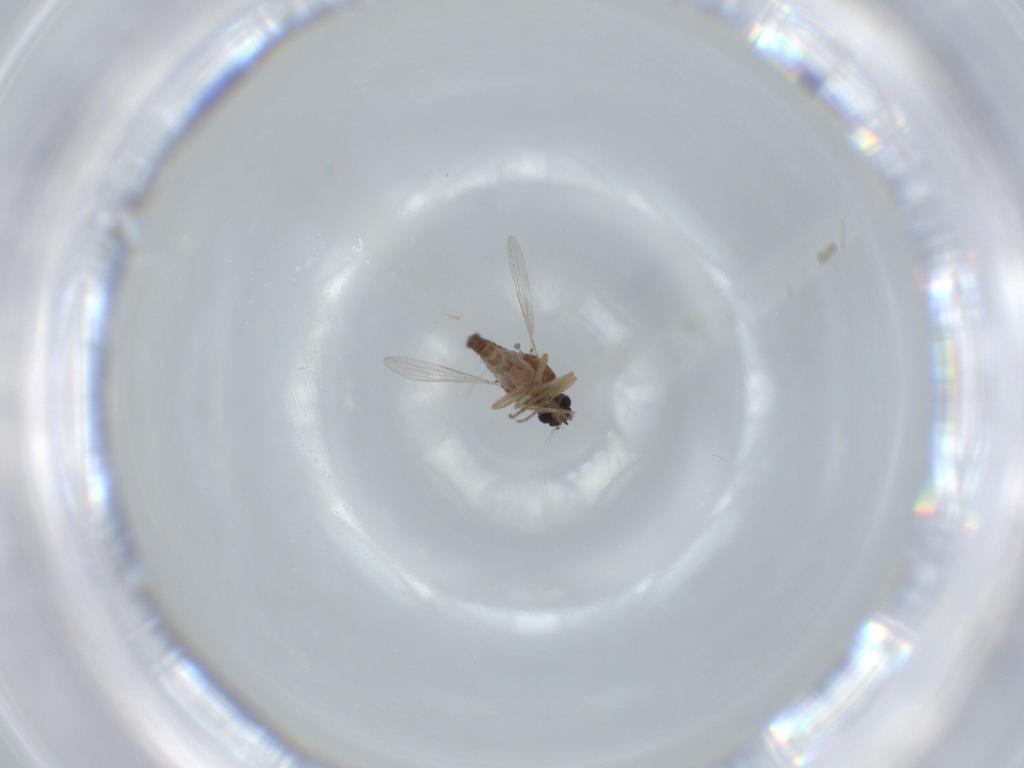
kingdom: Animalia
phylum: Arthropoda
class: Insecta
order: Diptera
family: Ceratopogonidae
